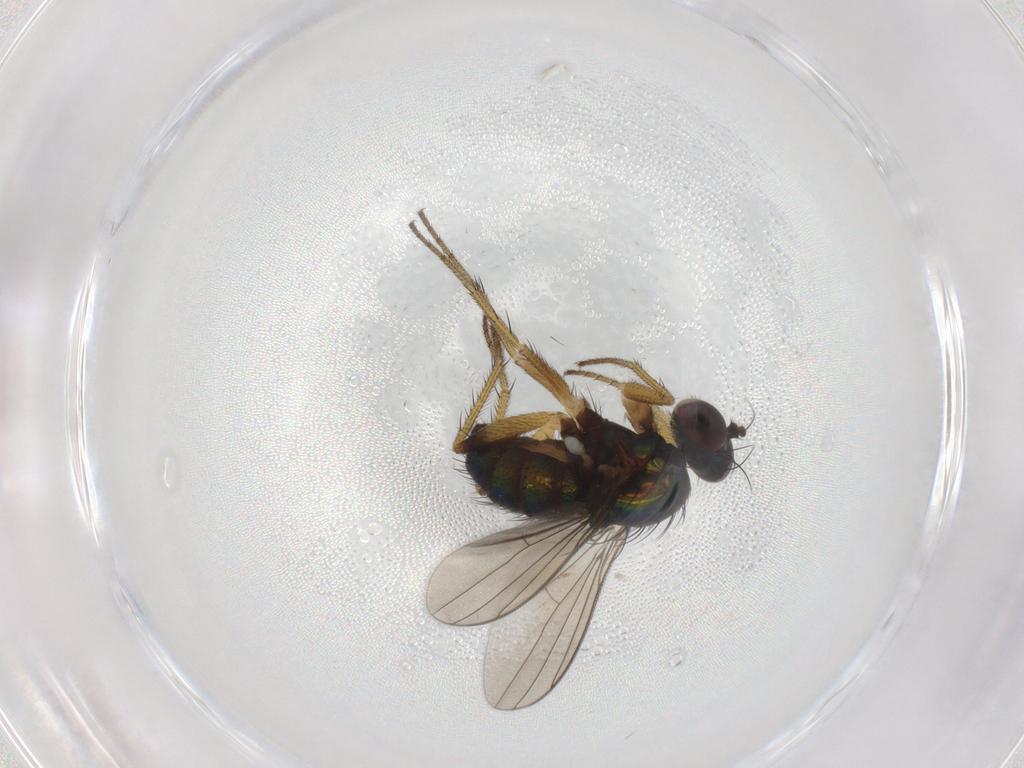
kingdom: Animalia
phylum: Arthropoda
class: Insecta
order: Diptera
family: Dolichopodidae
